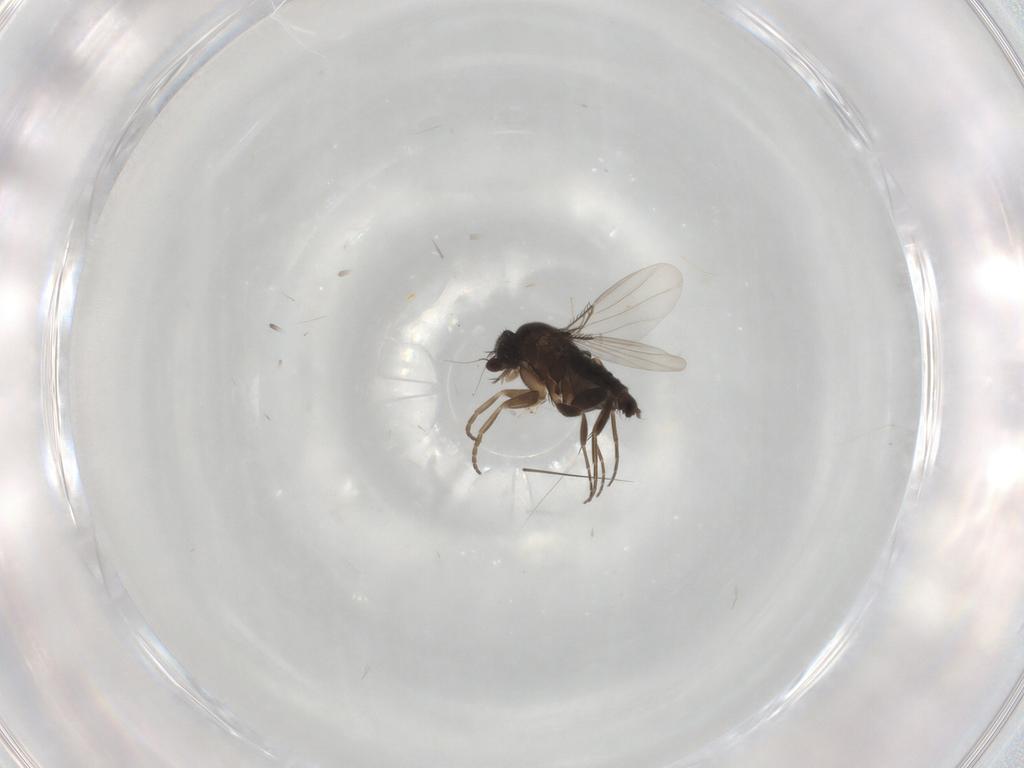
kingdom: Animalia
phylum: Arthropoda
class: Insecta
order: Diptera
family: Phoridae
